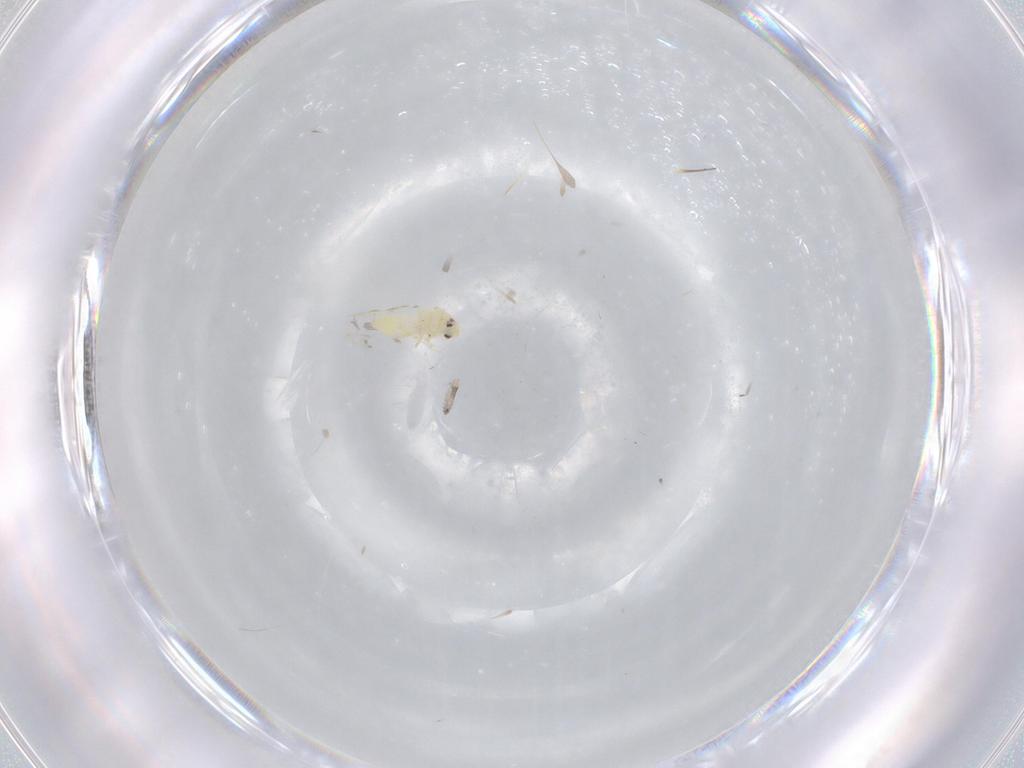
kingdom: Animalia
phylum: Arthropoda
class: Insecta
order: Hemiptera
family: Aleyrodidae
